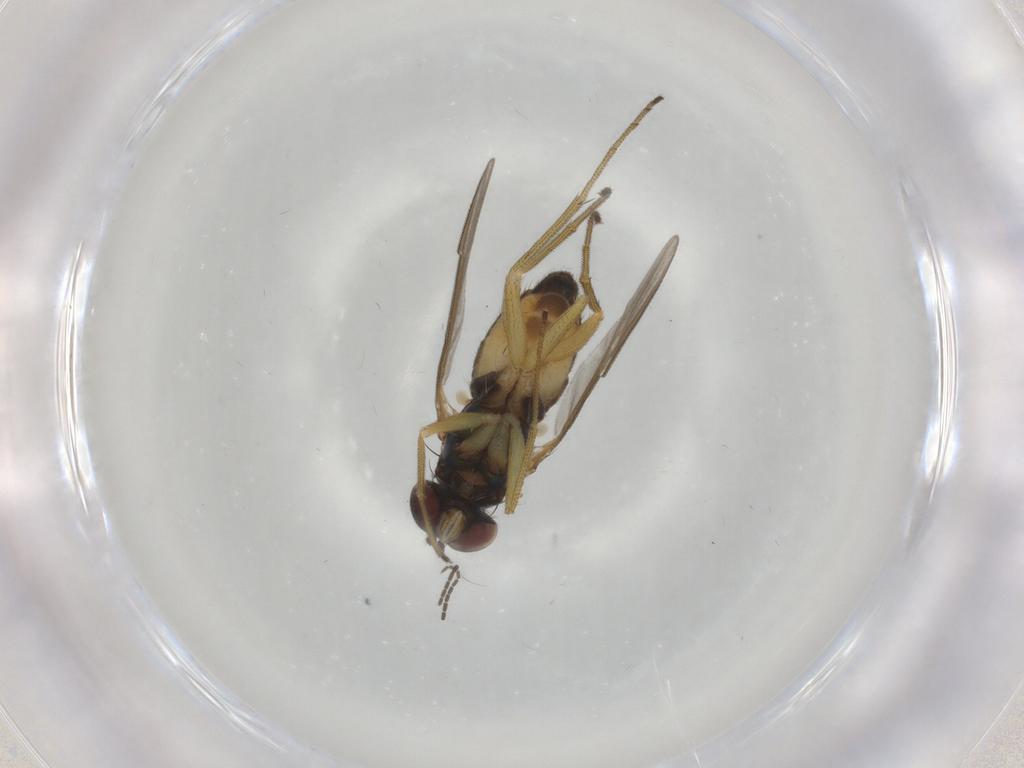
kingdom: Animalia
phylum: Arthropoda
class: Insecta
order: Diptera
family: Dolichopodidae
